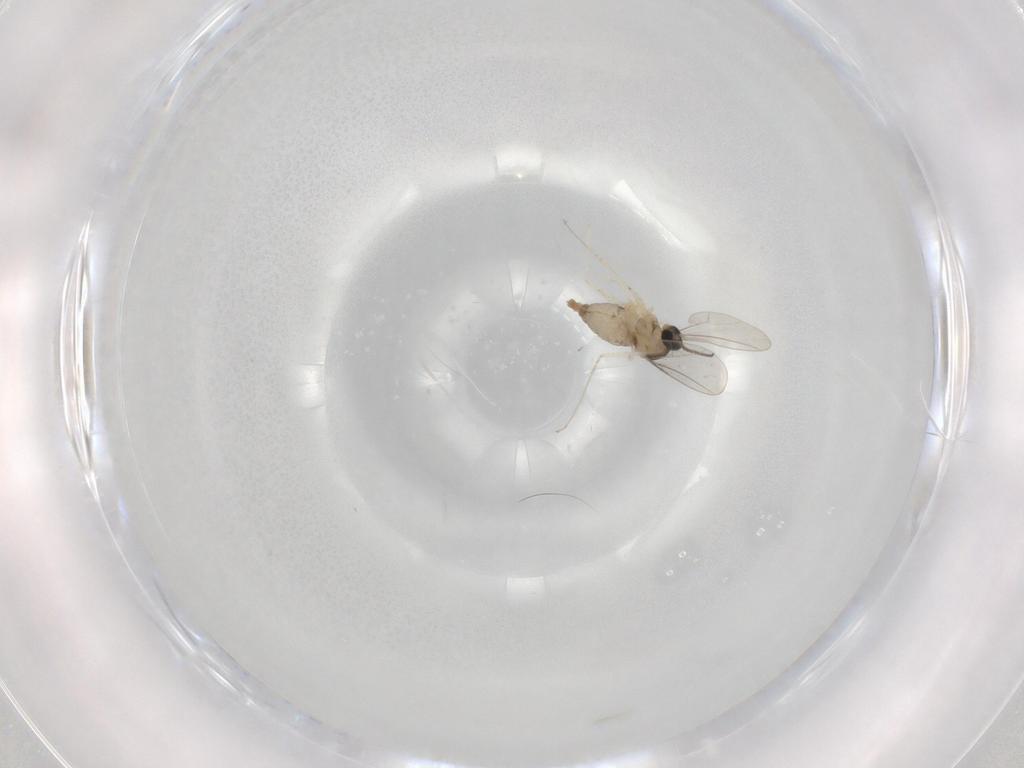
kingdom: Animalia
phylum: Arthropoda
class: Insecta
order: Diptera
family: Cecidomyiidae
